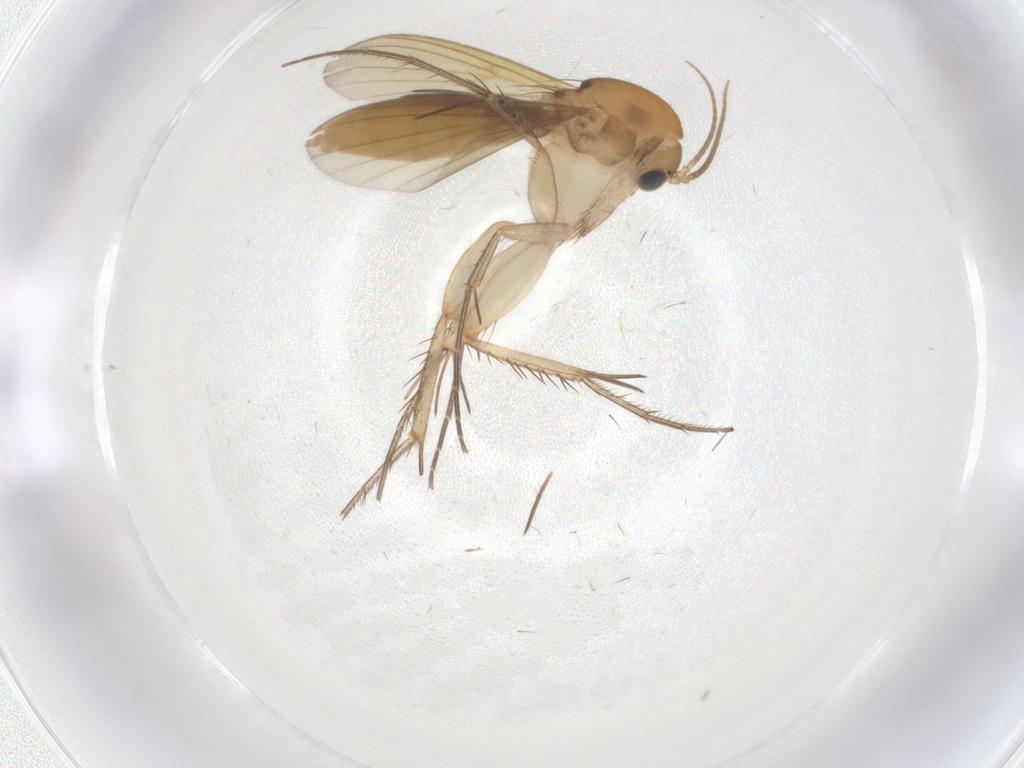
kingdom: Animalia
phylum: Arthropoda
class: Insecta
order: Diptera
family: Mycetophilidae
